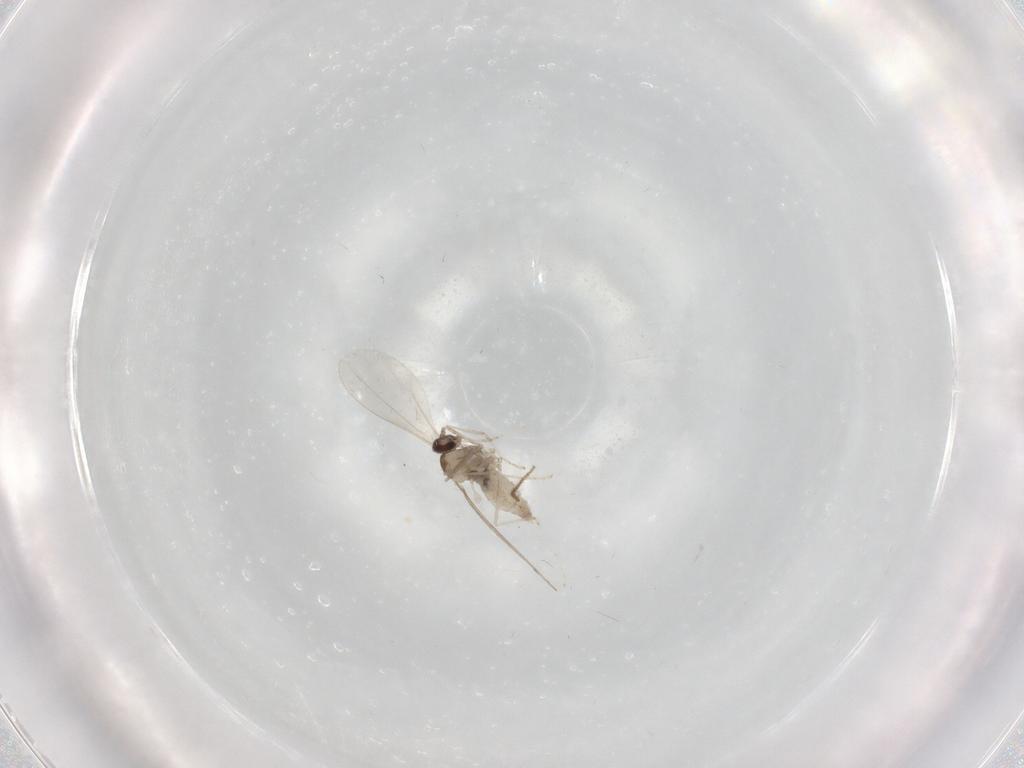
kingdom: Animalia
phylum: Arthropoda
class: Insecta
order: Diptera
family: Cecidomyiidae
